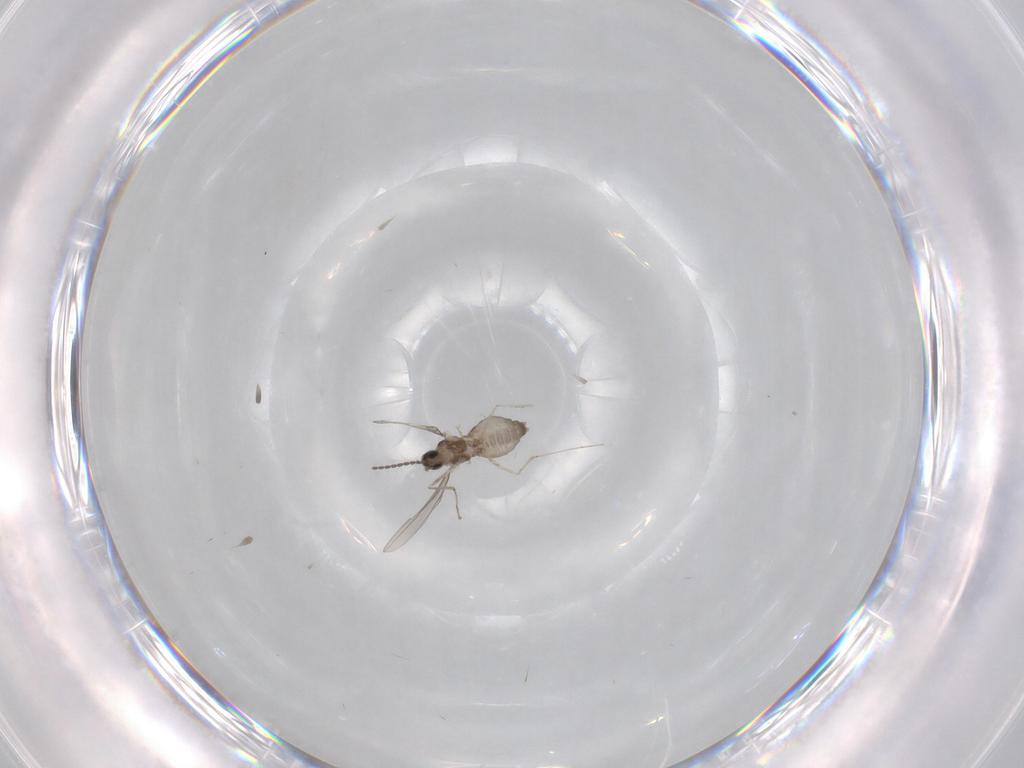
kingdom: Animalia
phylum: Arthropoda
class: Insecta
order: Diptera
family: Cecidomyiidae
